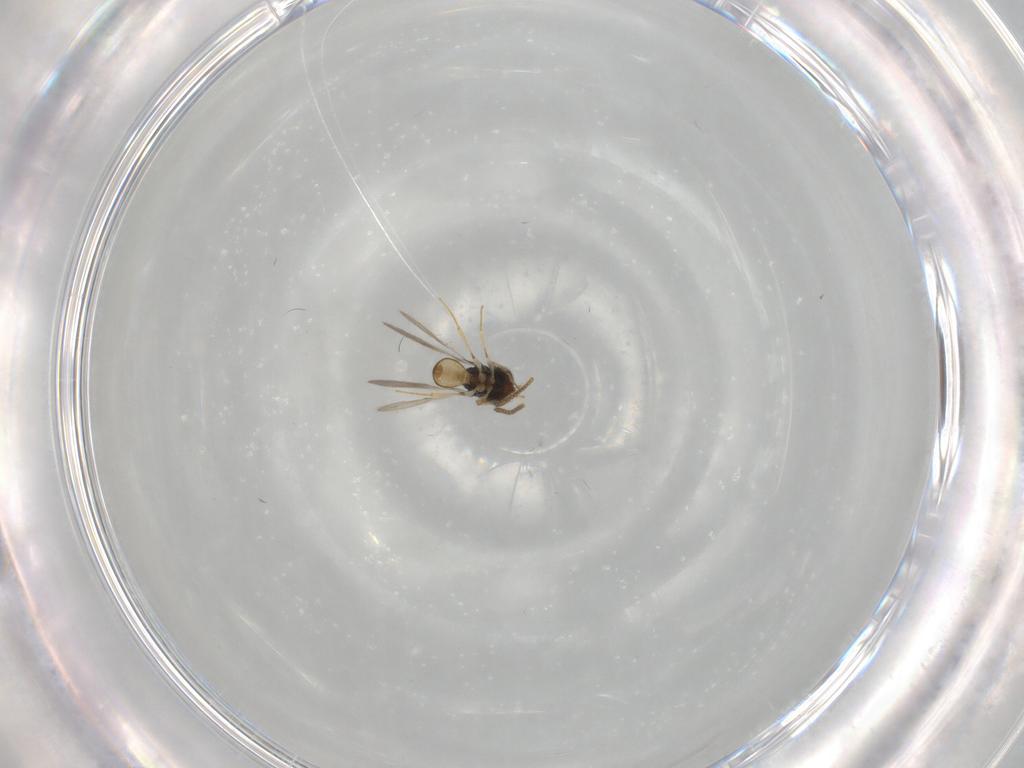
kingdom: Animalia
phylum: Arthropoda
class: Insecta
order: Hymenoptera
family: Scelionidae
